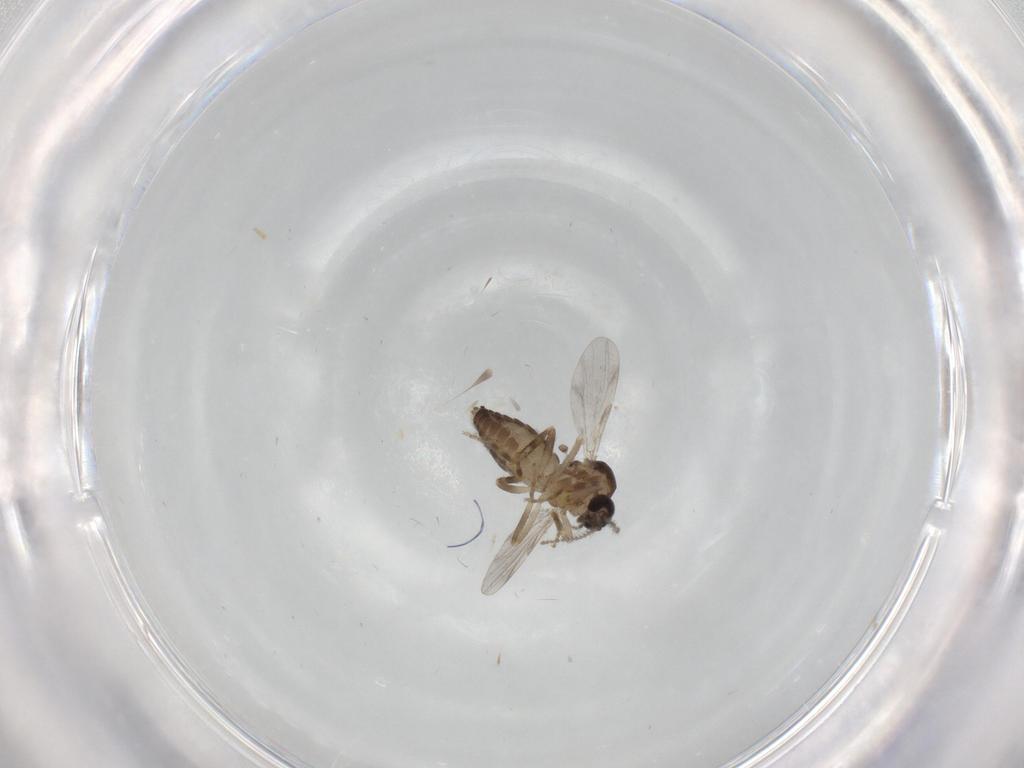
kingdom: Animalia
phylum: Arthropoda
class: Insecta
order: Diptera
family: Ceratopogonidae
